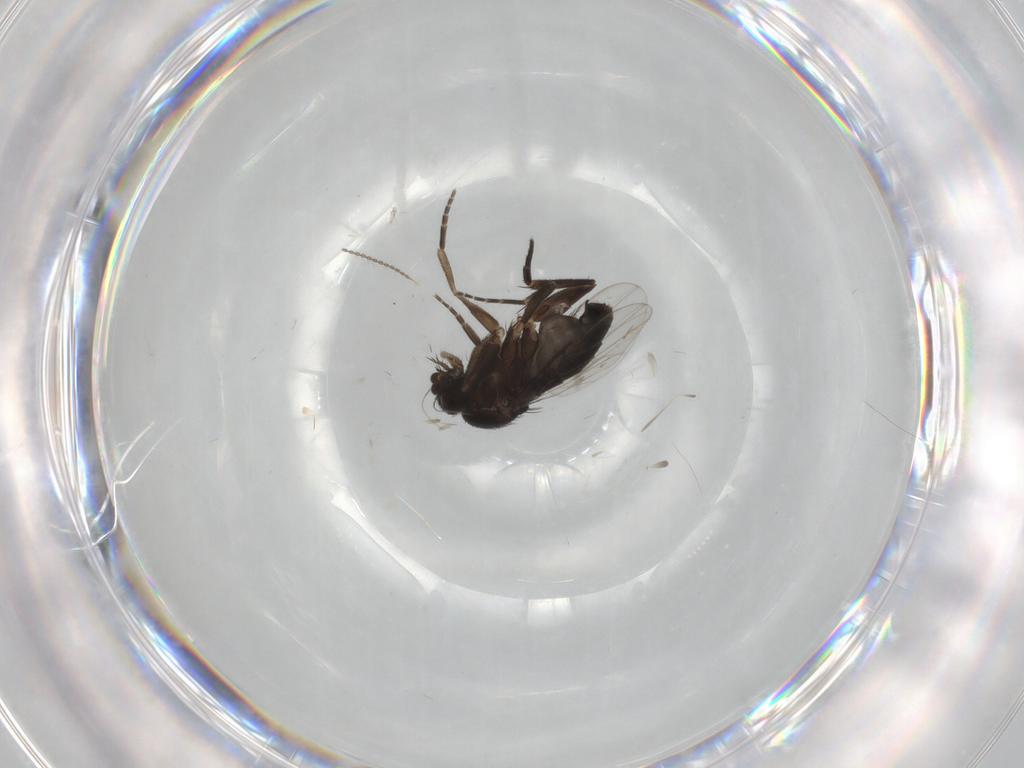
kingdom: Animalia
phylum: Arthropoda
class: Insecta
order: Diptera
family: Phoridae
